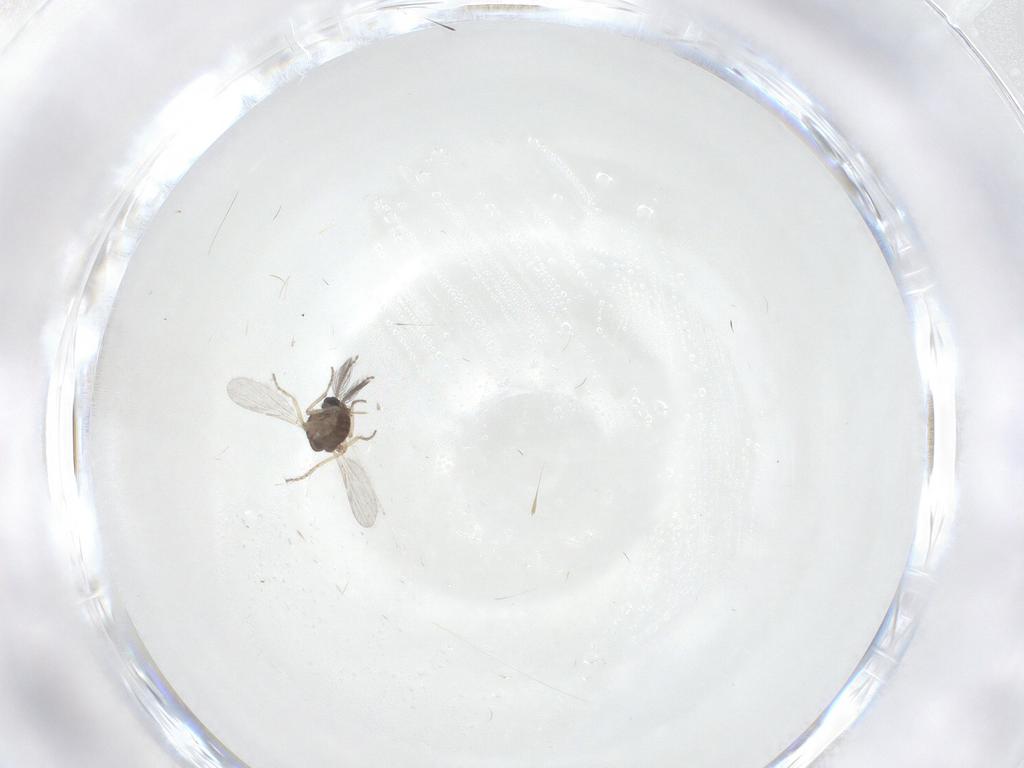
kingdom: Animalia
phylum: Arthropoda
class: Insecta
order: Diptera
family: Ceratopogonidae
